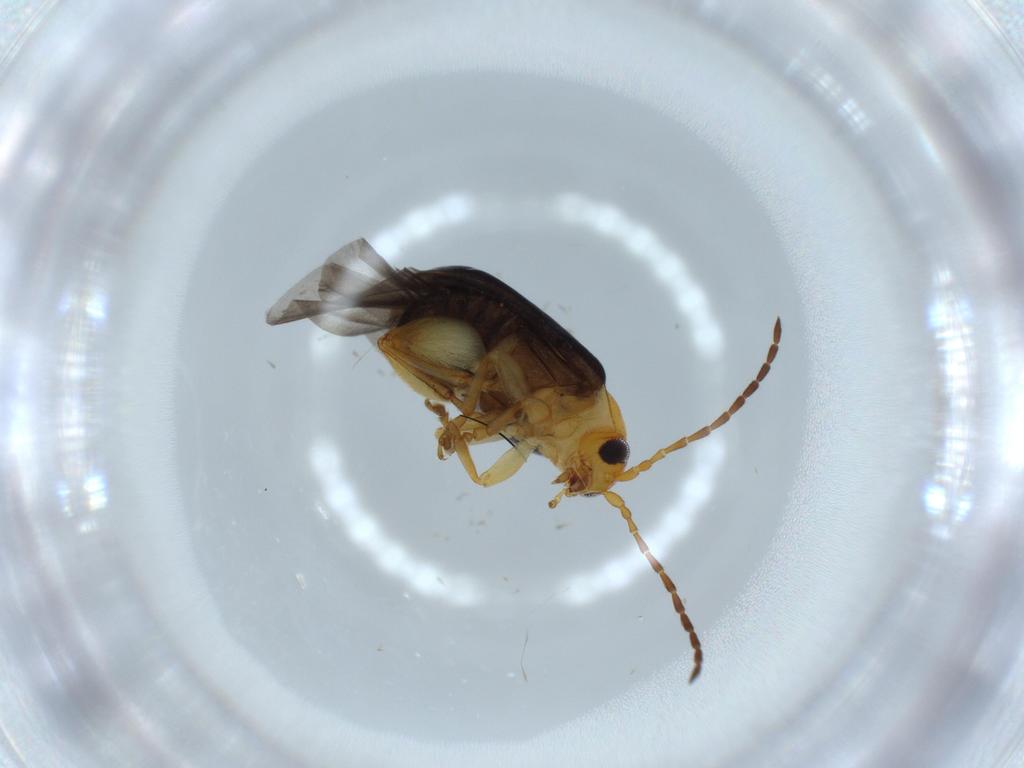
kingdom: Animalia
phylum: Arthropoda
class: Insecta
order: Coleoptera
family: Chrysomelidae
